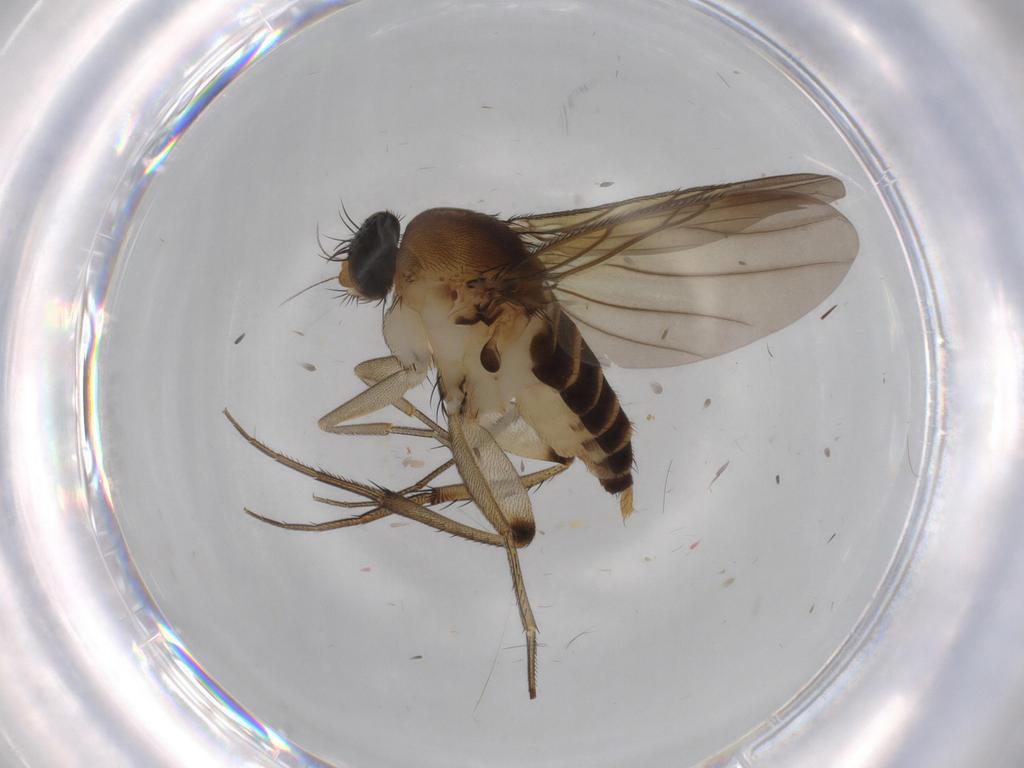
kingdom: Animalia
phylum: Arthropoda
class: Insecta
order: Diptera
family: Phoridae
